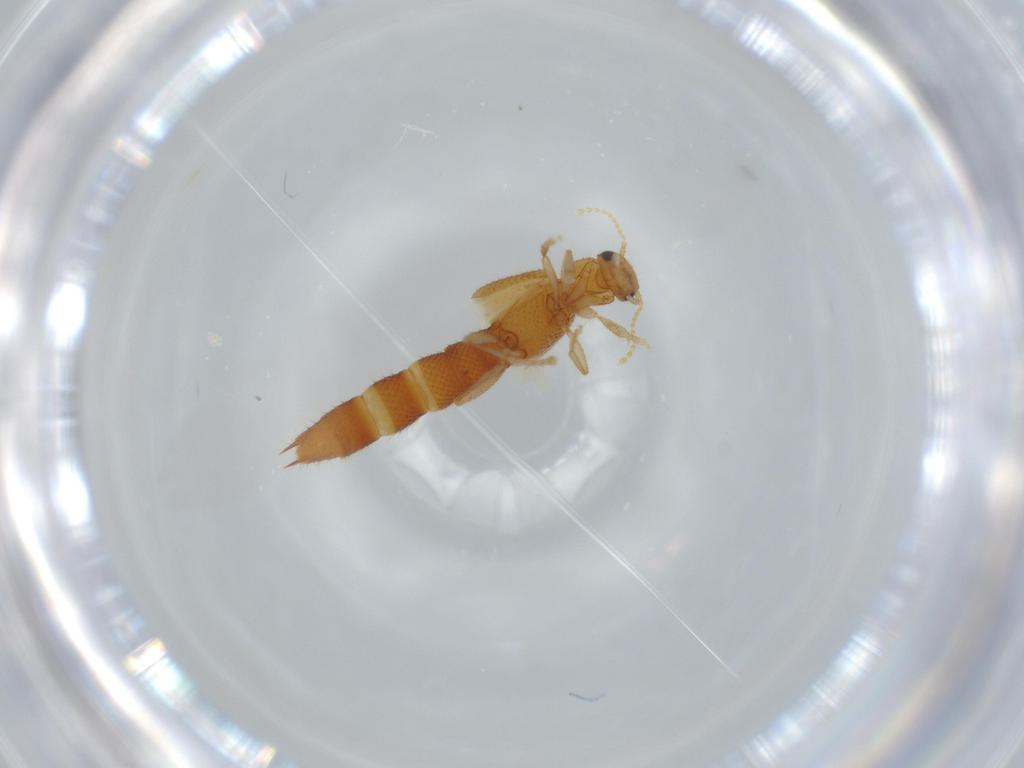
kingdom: Animalia
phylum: Arthropoda
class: Insecta
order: Coleoptera
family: Staphylinidae
